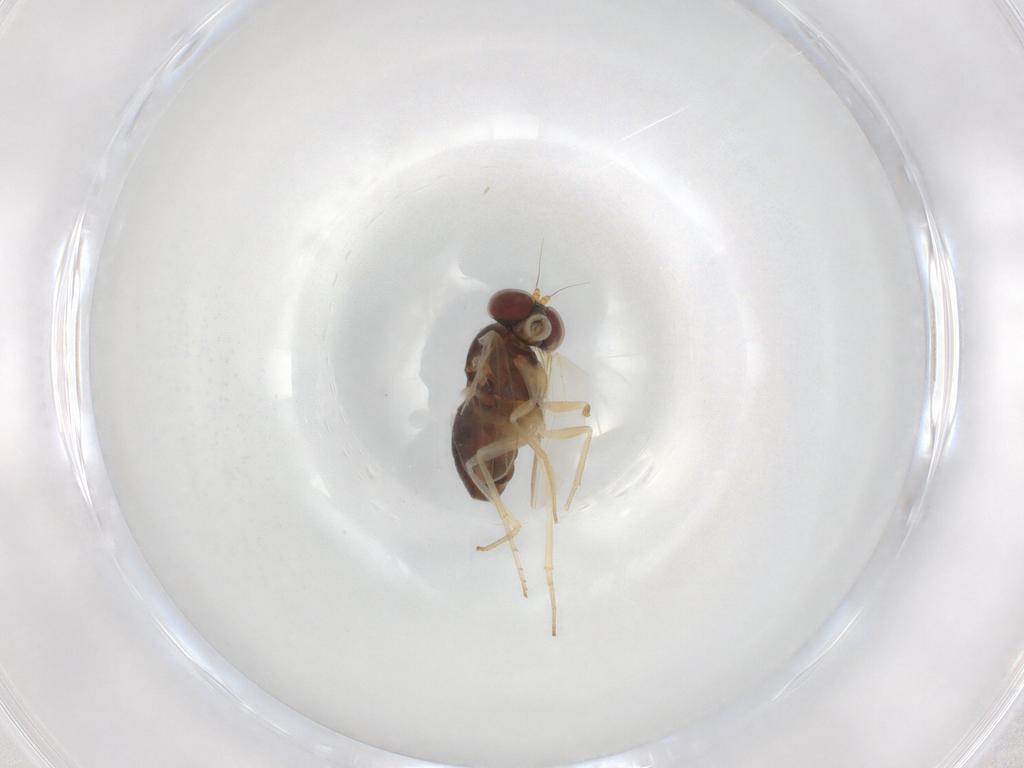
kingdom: Animalia
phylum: Arthropoda
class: Insecta
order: Diptera
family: Dolichopodidae
